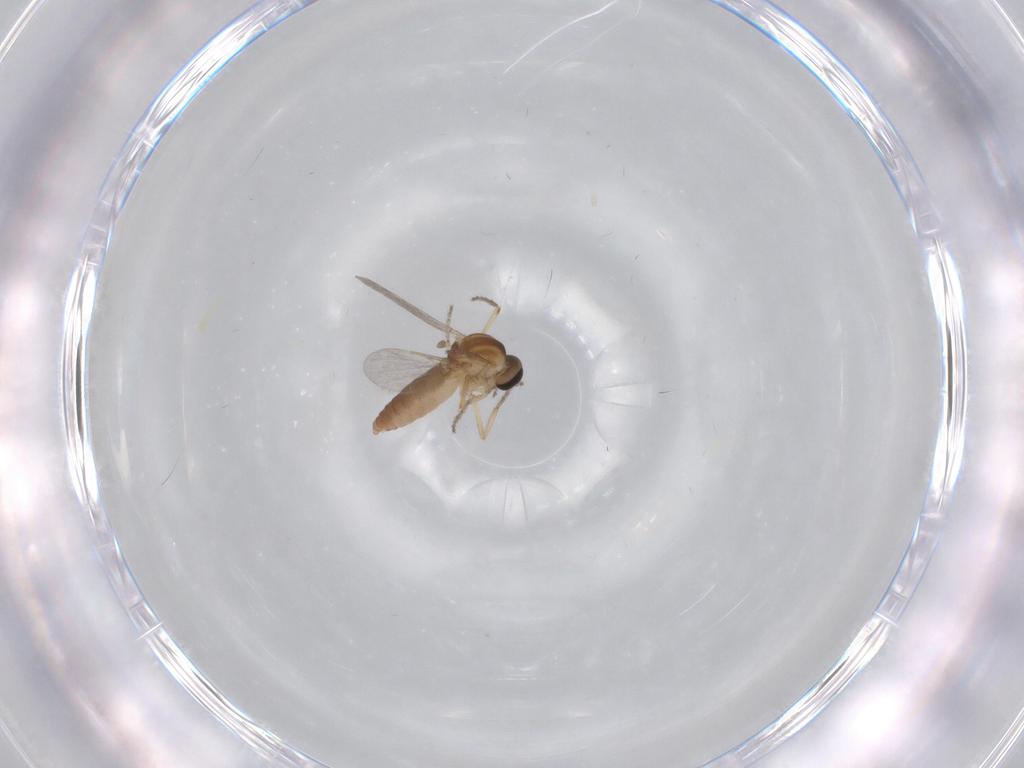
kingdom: Animalia
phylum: Arthropoda
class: Insecta
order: Diptera
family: Ceratopogonidae
